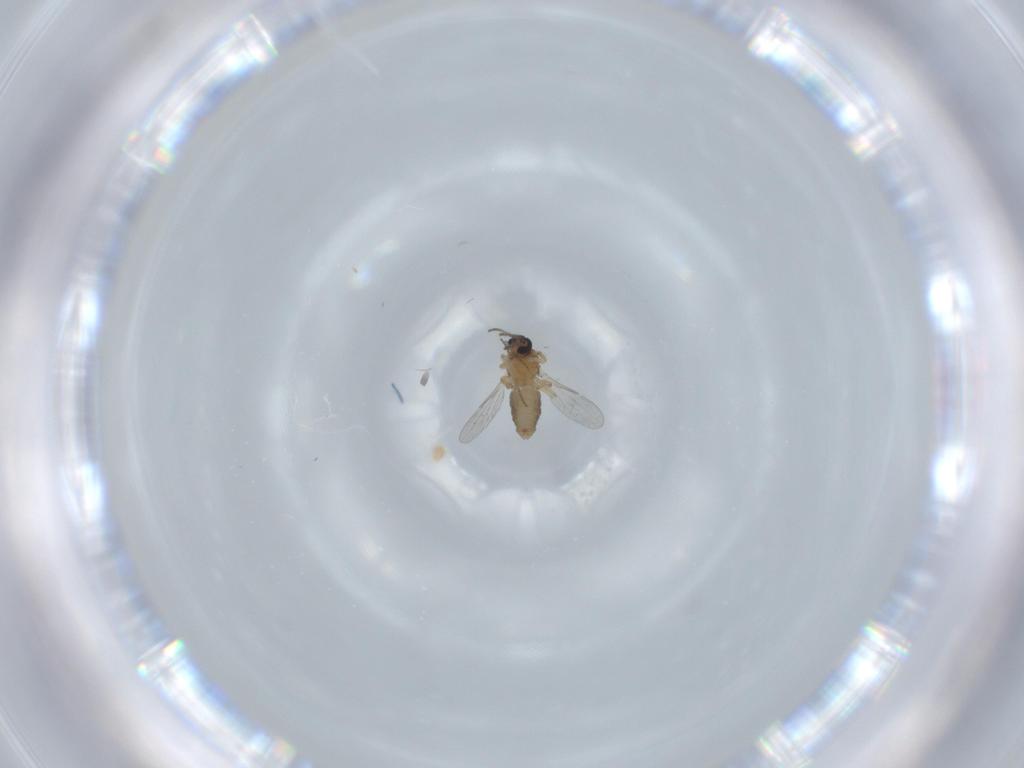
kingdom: Animalia
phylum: Arthropoda
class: Insecta
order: Diptera
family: Ceratopogonidae
